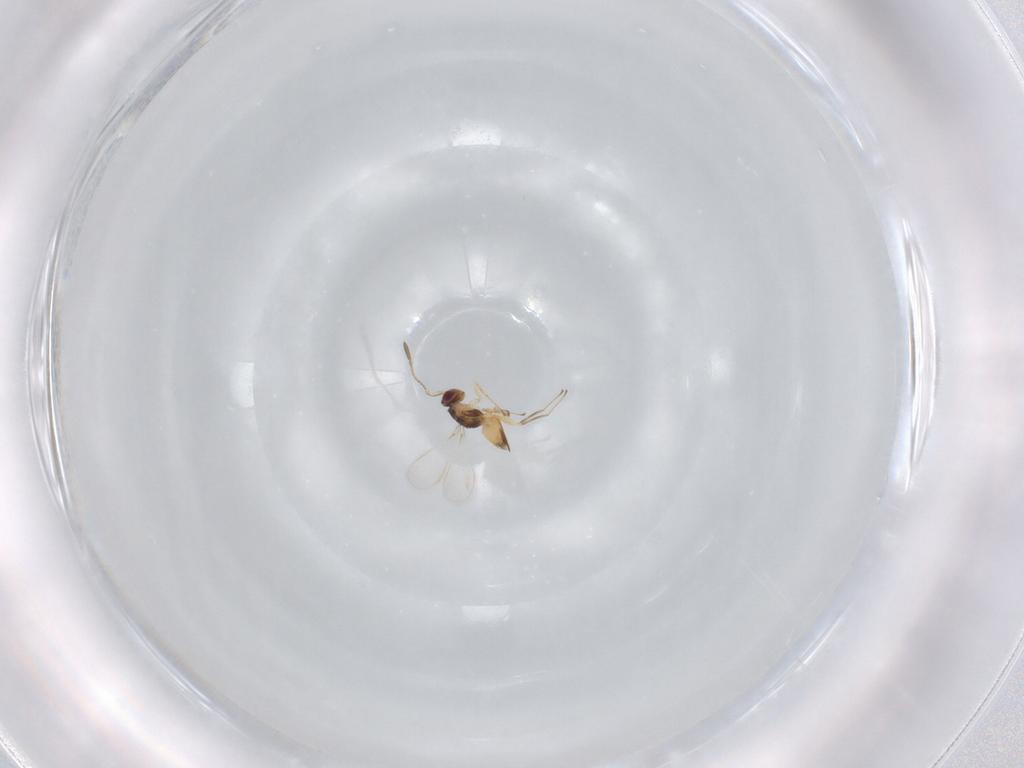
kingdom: Animalia
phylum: Arthropoda
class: Insecta
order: Hymenoptera
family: Mymaridae
